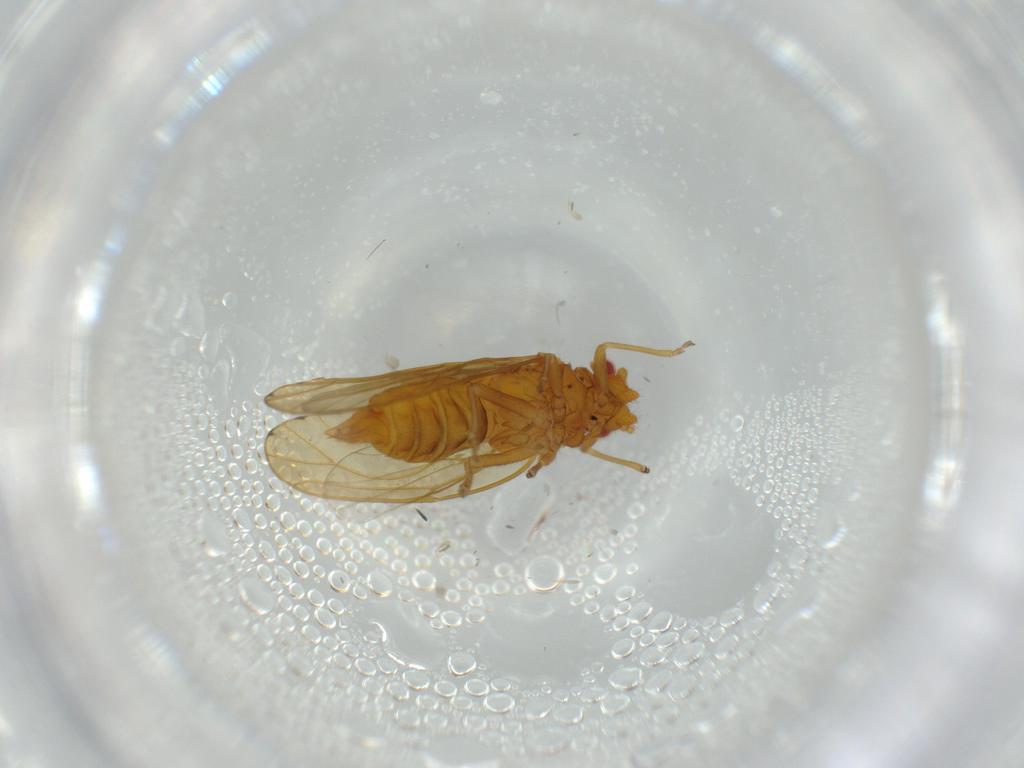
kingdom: Animalia
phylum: Arthropoda
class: Insecta
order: Hemiptera
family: Psylloidea_incertae_sedis
